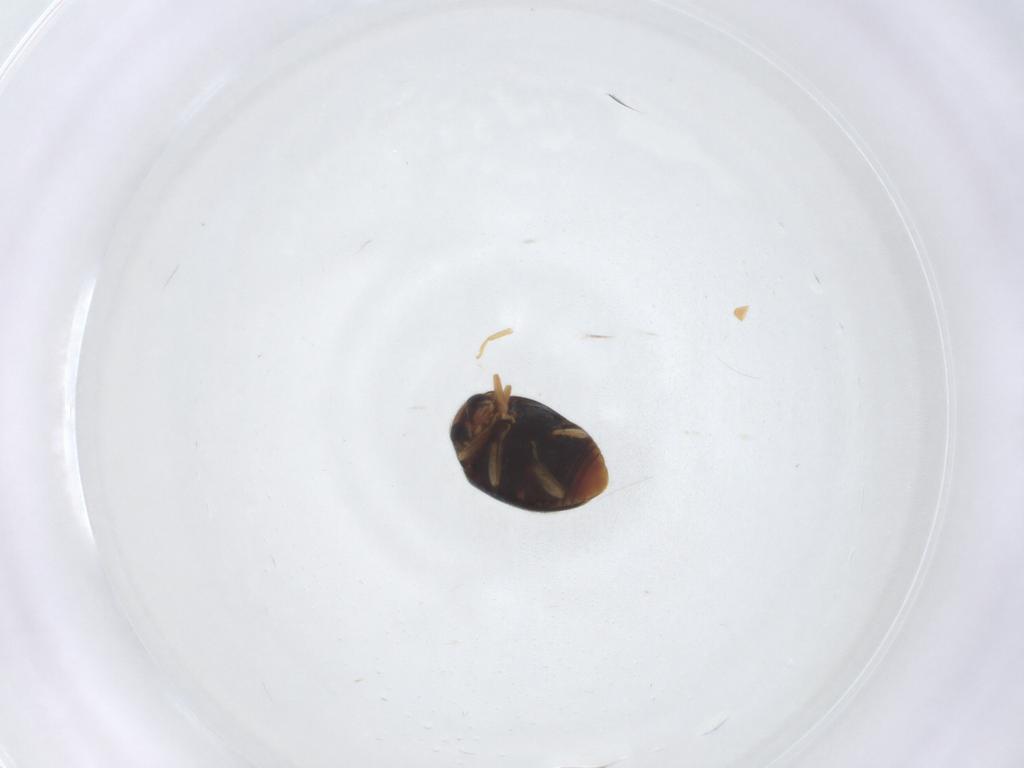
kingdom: Animalia
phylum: Arthropoda
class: Insecta
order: Coleoptera
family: Coccinellidae
